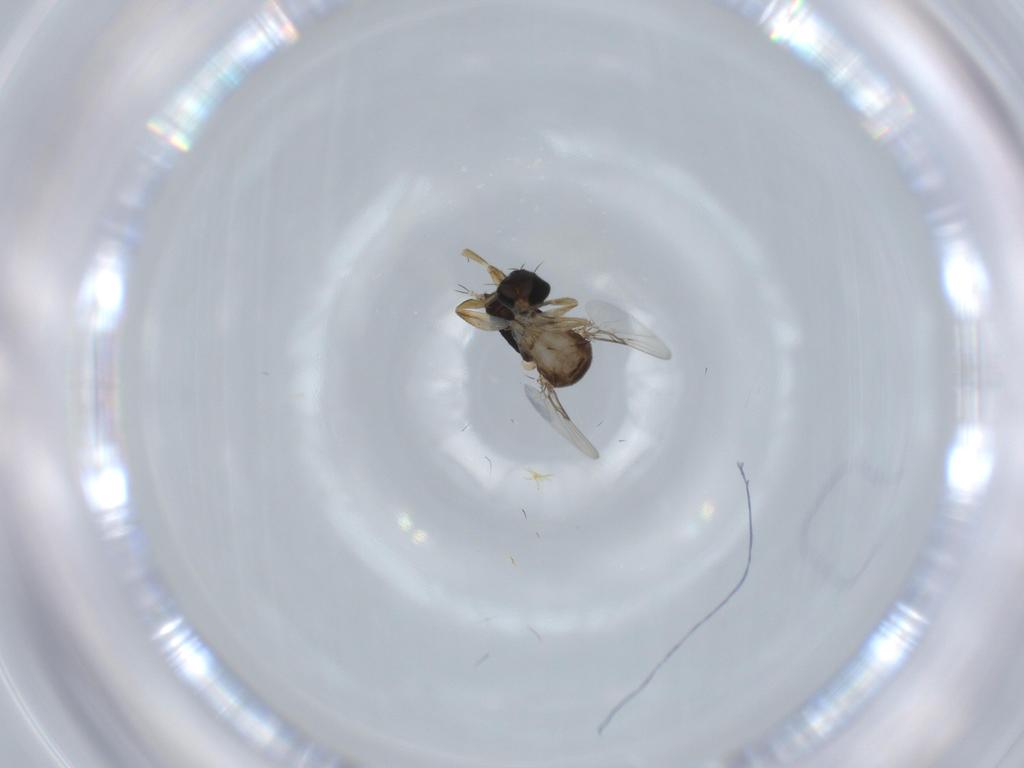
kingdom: Animalia
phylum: Arthropoda
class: Insecta
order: Diptera
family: Phoridae
